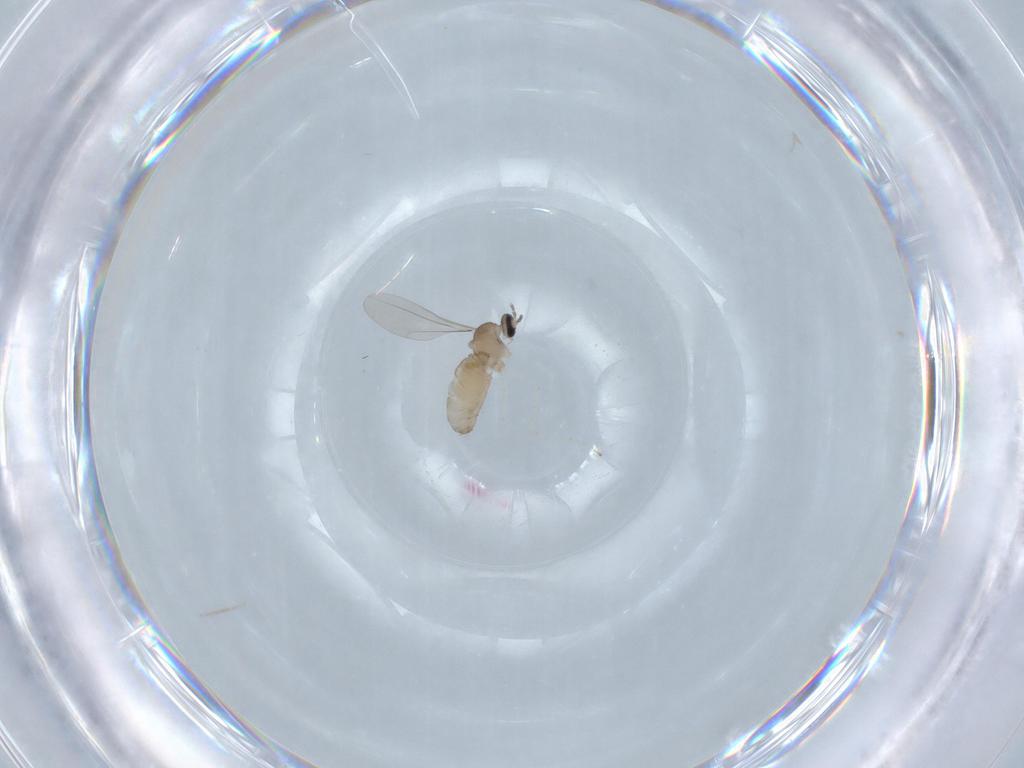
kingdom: Animalia
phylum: Arthropoda
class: Insecta
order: Diptera
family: Cecidomyiidae
